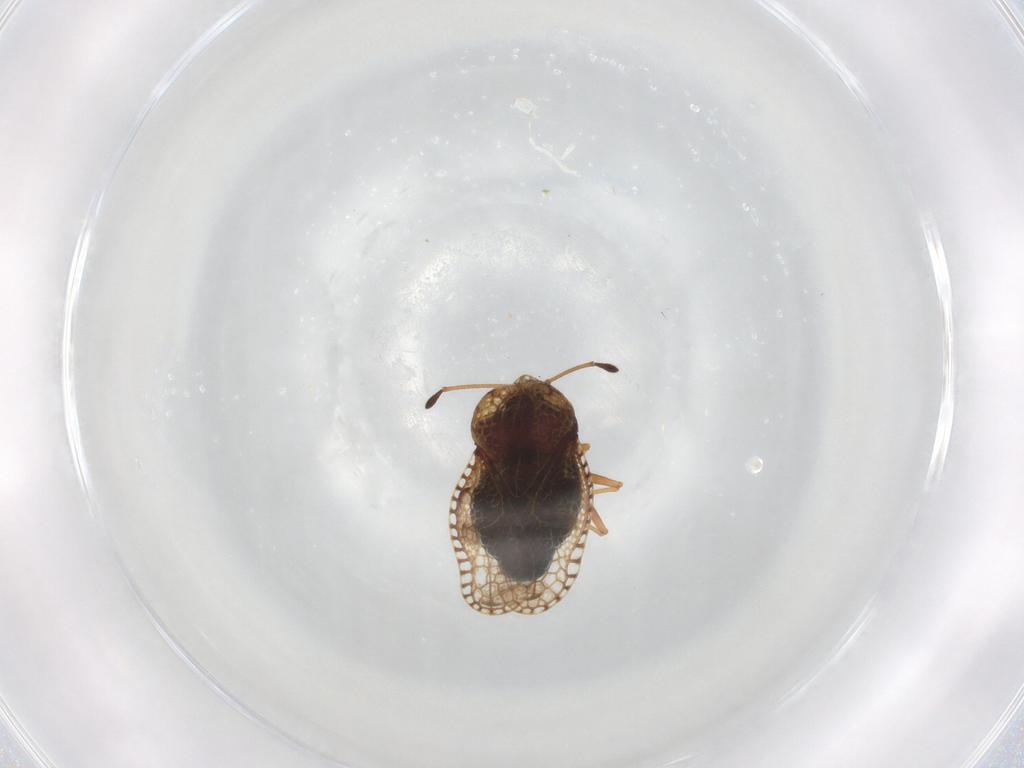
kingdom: Animalia
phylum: Arthropoda
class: Insecta
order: Hemiptera
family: Tingidae
